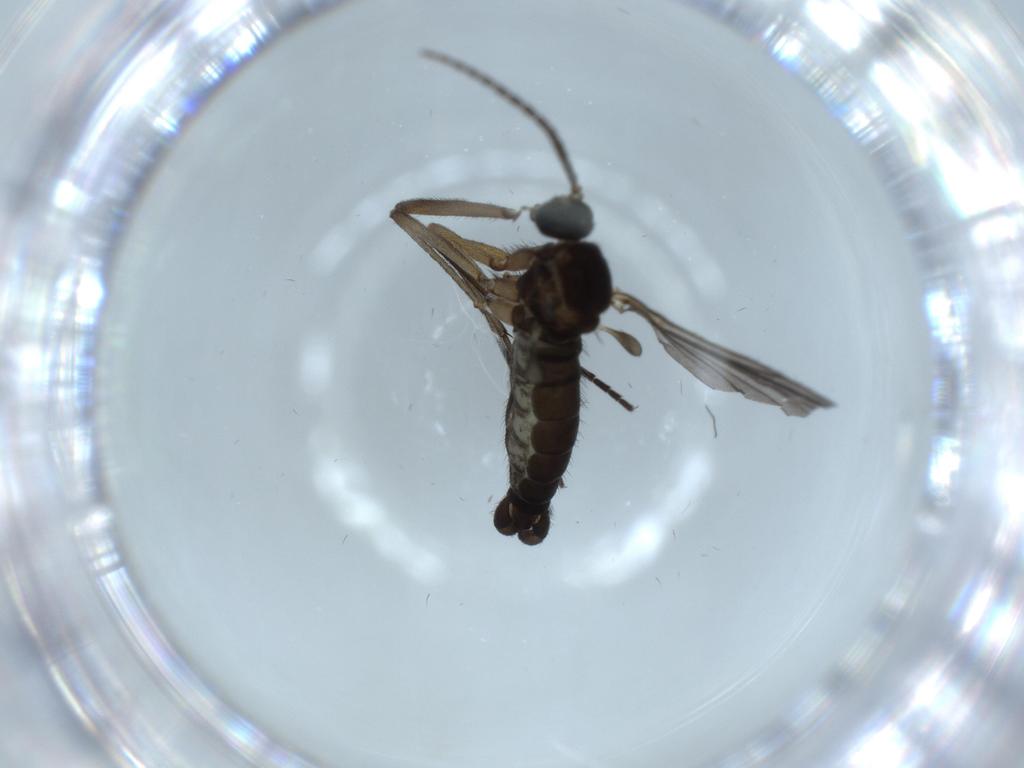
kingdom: Animalia
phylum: Arthropoda
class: Insecta
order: Diptera
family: Sciaridae
